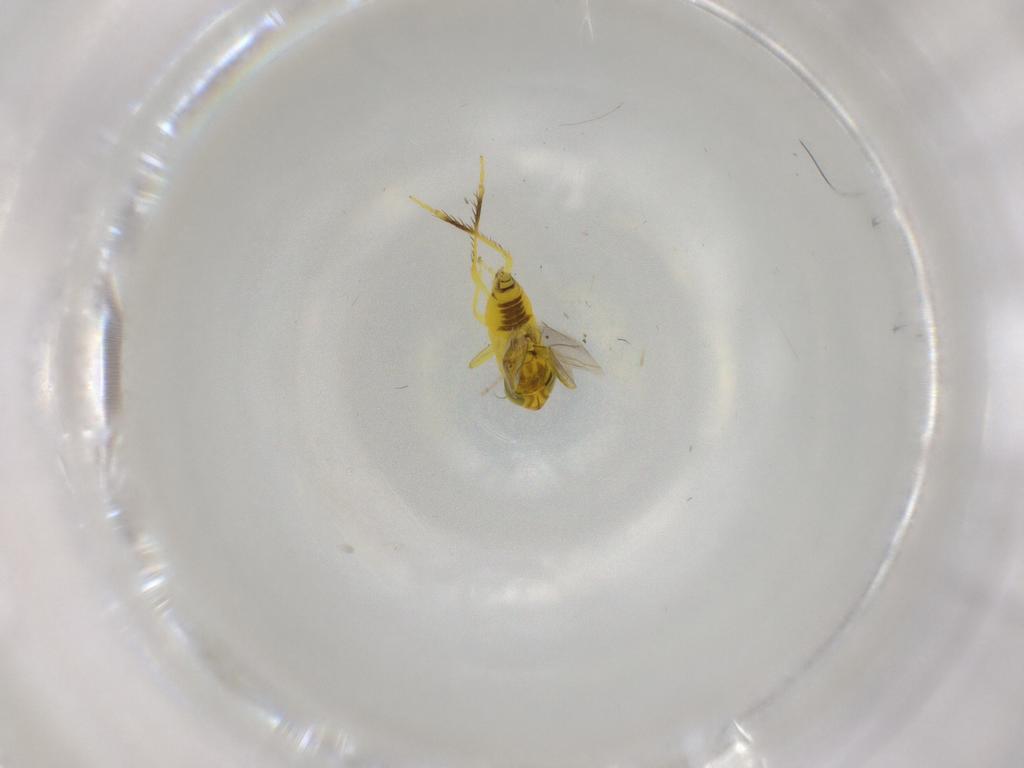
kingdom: Animalia
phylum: Arthropoda
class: Insecta
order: Hemiptera
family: Cicadellidae
